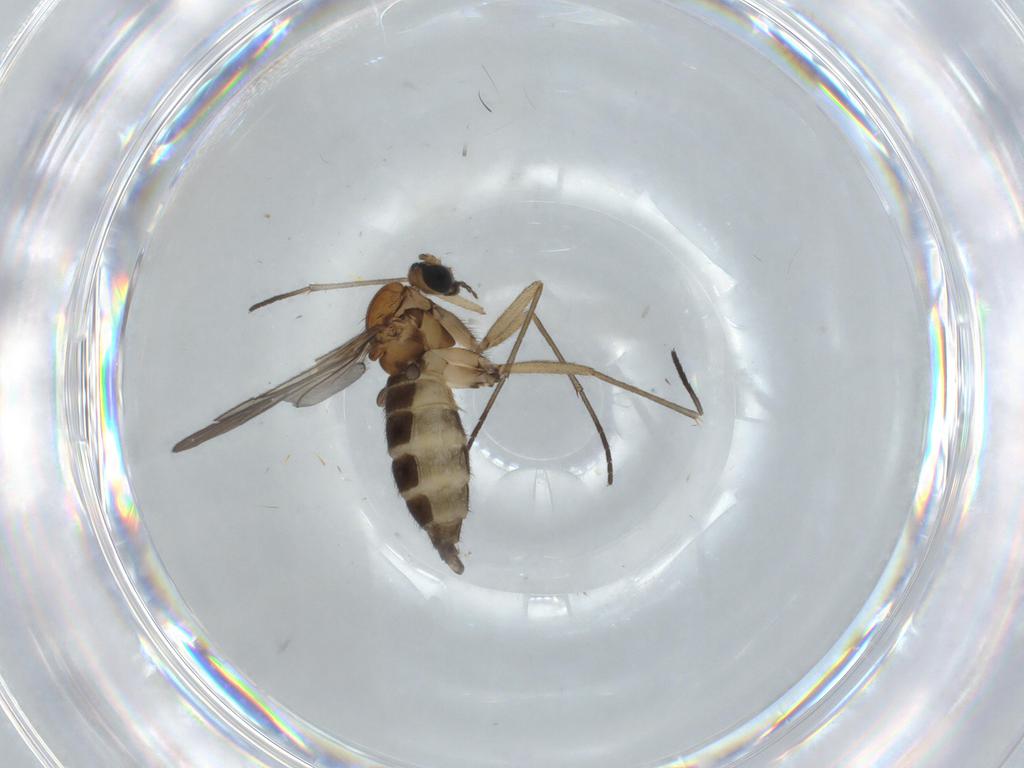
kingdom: Animalia
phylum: Arthropoda
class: Insecta
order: Diptera
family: Sciaridae
